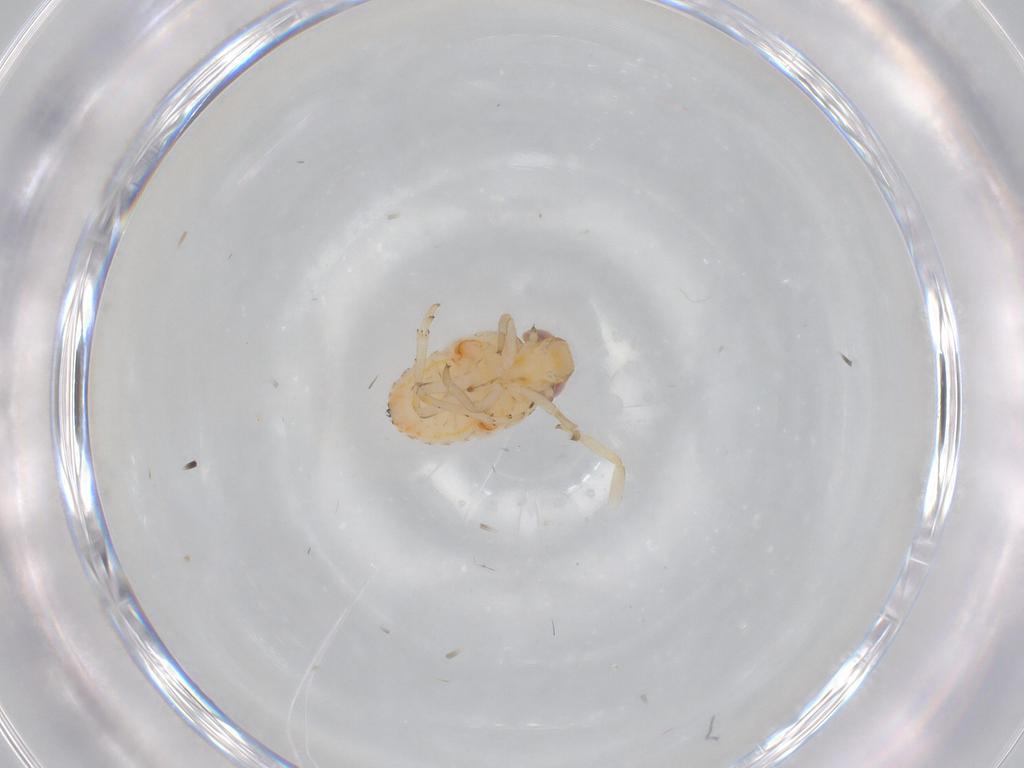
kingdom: Animalia
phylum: Arthropoda
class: Insecta
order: Hemiptera
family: Issidae
